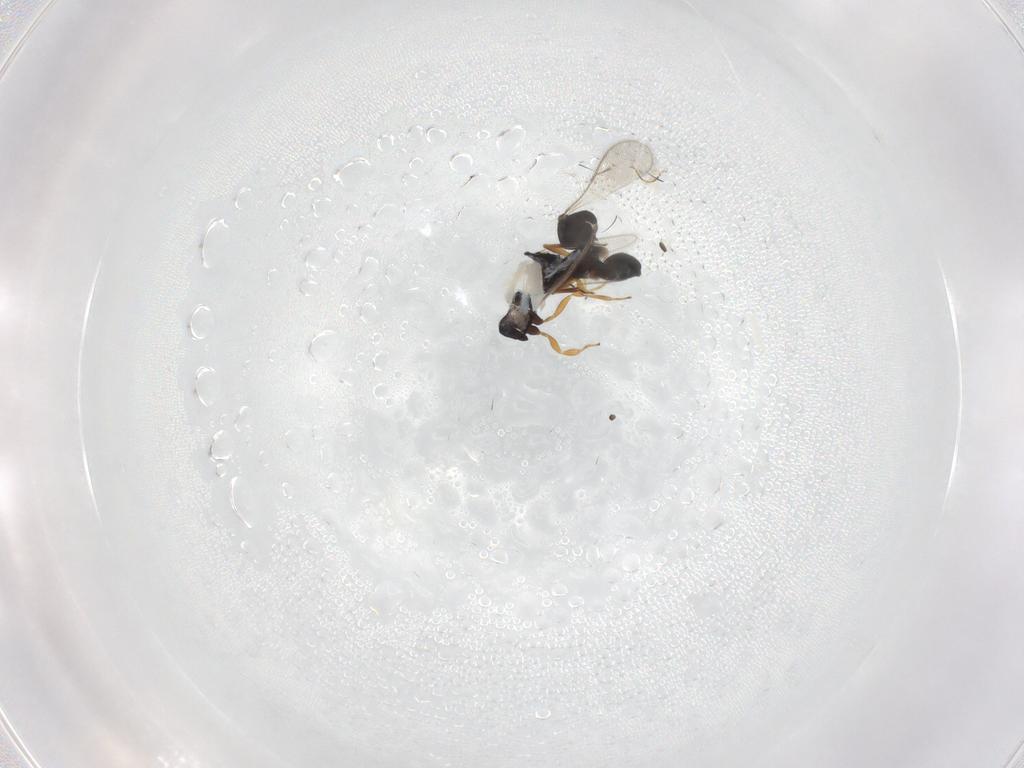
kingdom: Animalia
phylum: Arthropoda
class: Insecta
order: Hymenoptera
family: Scelionidae
